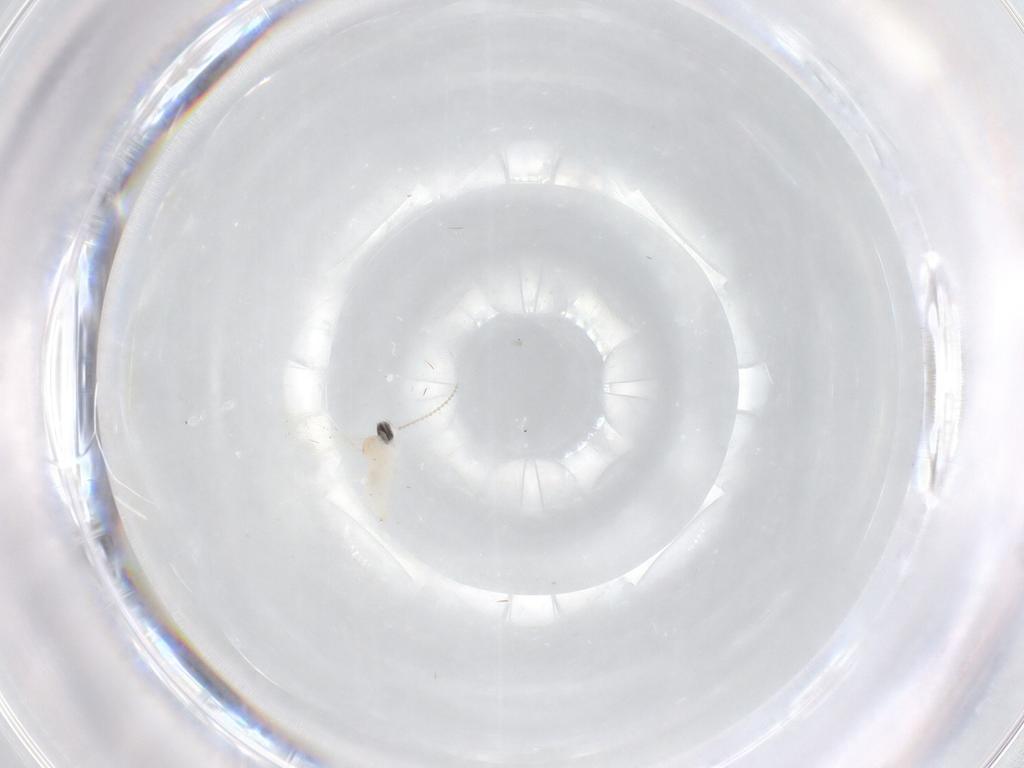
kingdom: Animalia
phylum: Arthropoda
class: Insecta
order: Diptera
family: Cecidomyiidae
